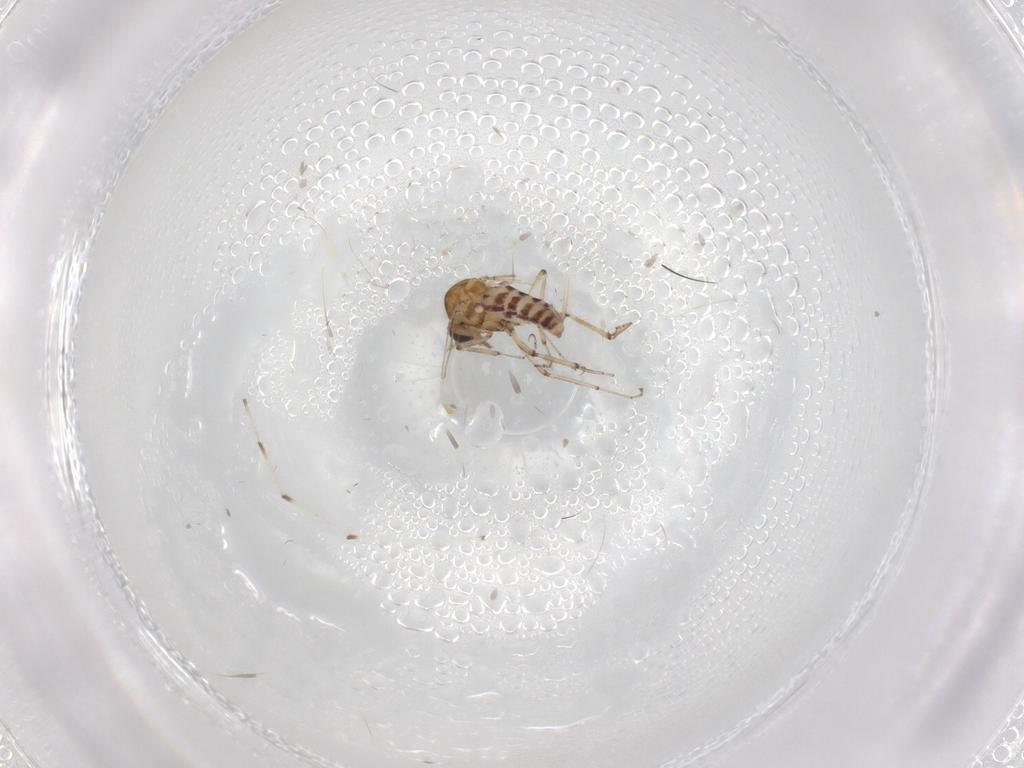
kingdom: Animalia
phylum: Arthropoda
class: Insecta
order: Diptera
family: Ceratopogonidae
